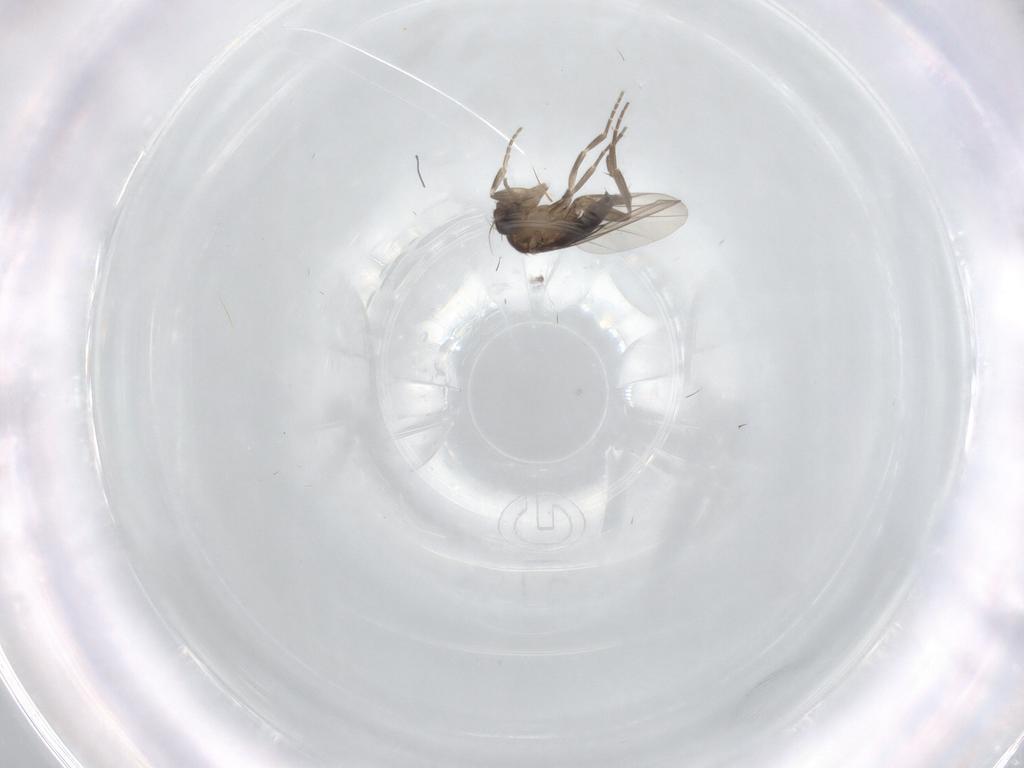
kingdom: Animalia
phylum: Arthropoda
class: Insecta
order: Diptera
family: Phoridae
